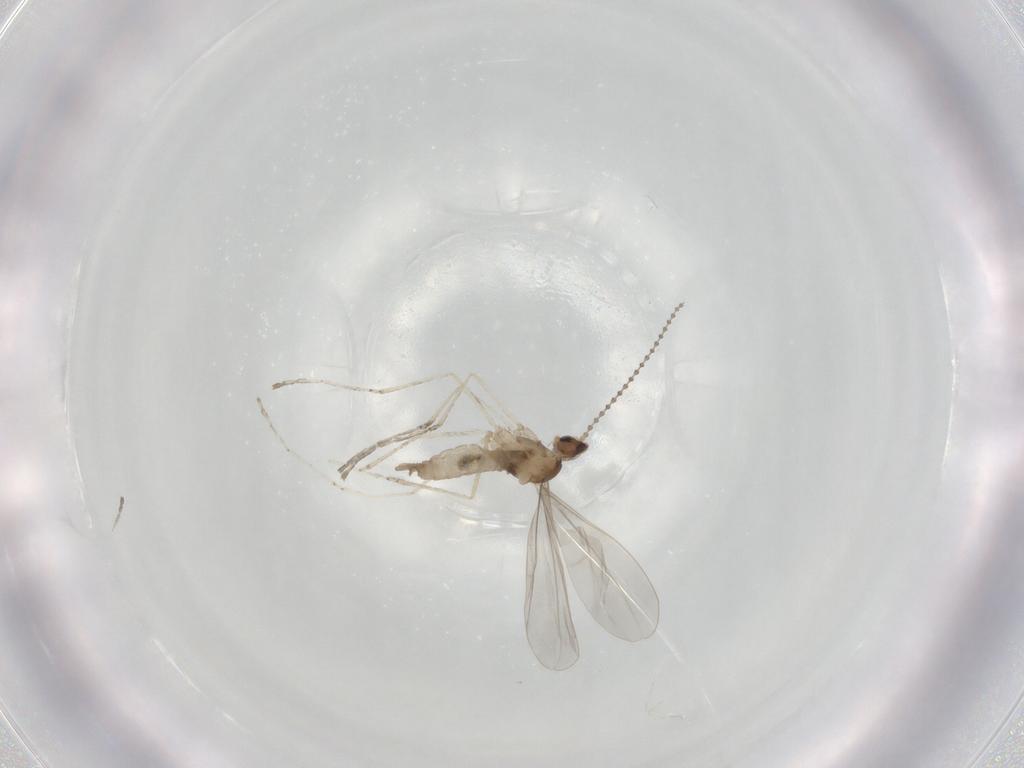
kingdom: Animalia
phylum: Arthropoda
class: Insecta
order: Diptera
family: Cecidomyiidae
